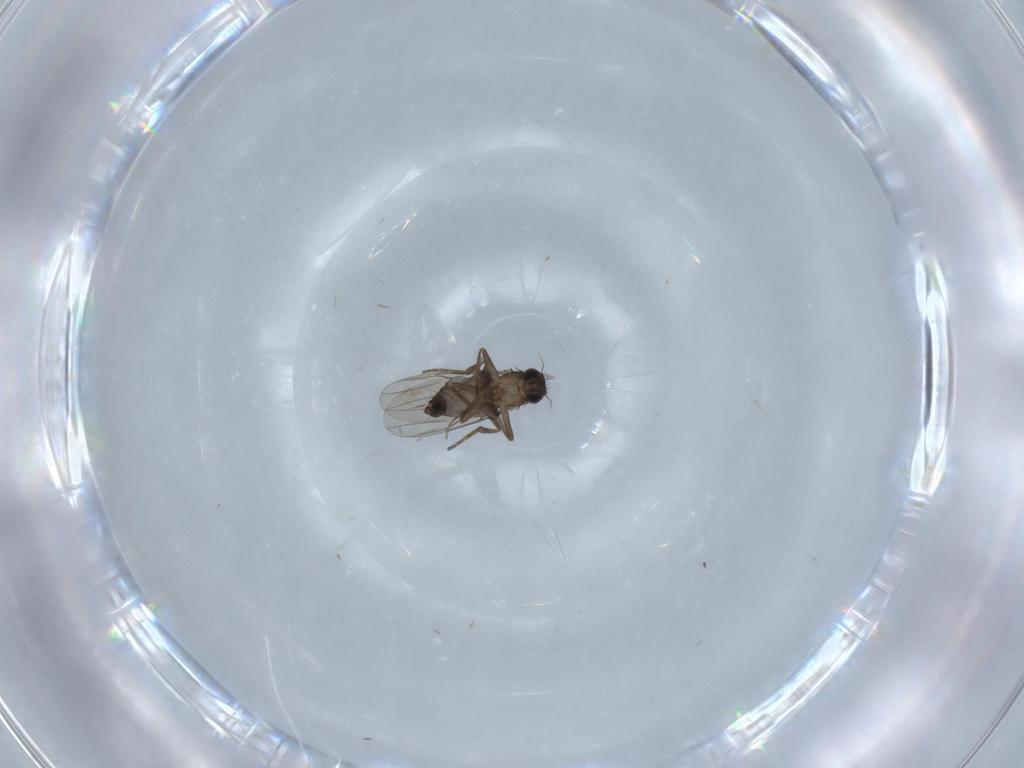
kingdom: Animalia
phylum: Arthropoda
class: Insecta
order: Diptera
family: Phoridae
